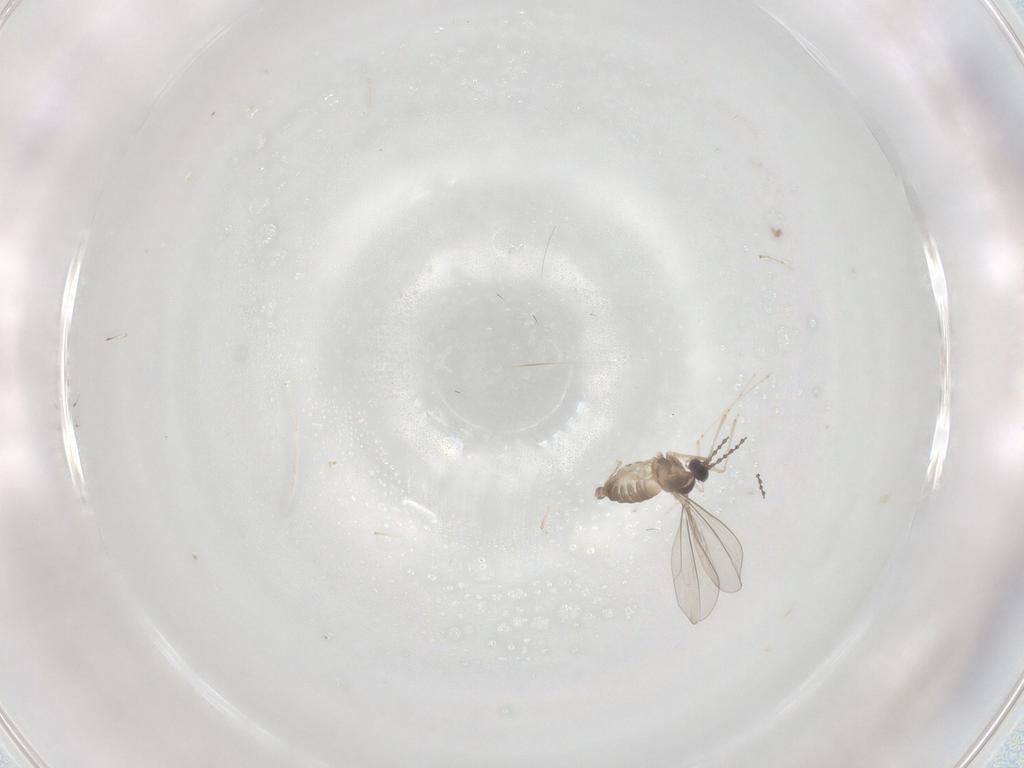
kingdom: Animalia
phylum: Arthropoda
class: Insecta
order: Diptera
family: Cecidomyiidae
